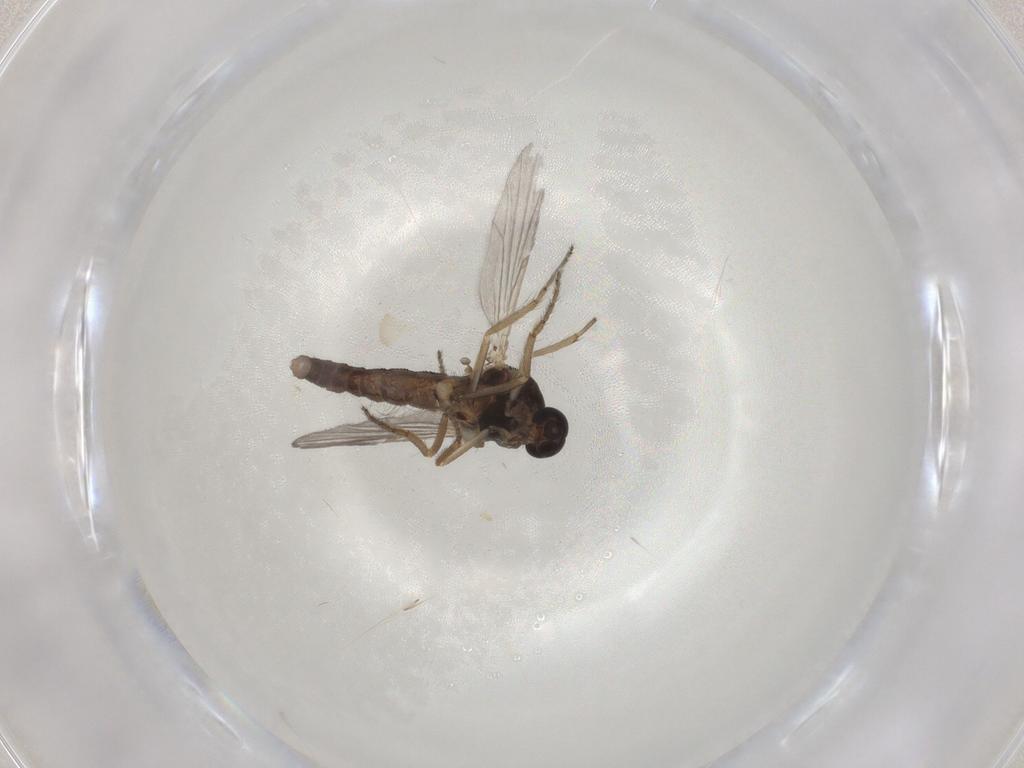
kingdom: Animalia
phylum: Arthropoda
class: Insecta
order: Diptera
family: Ceratopogonidae
